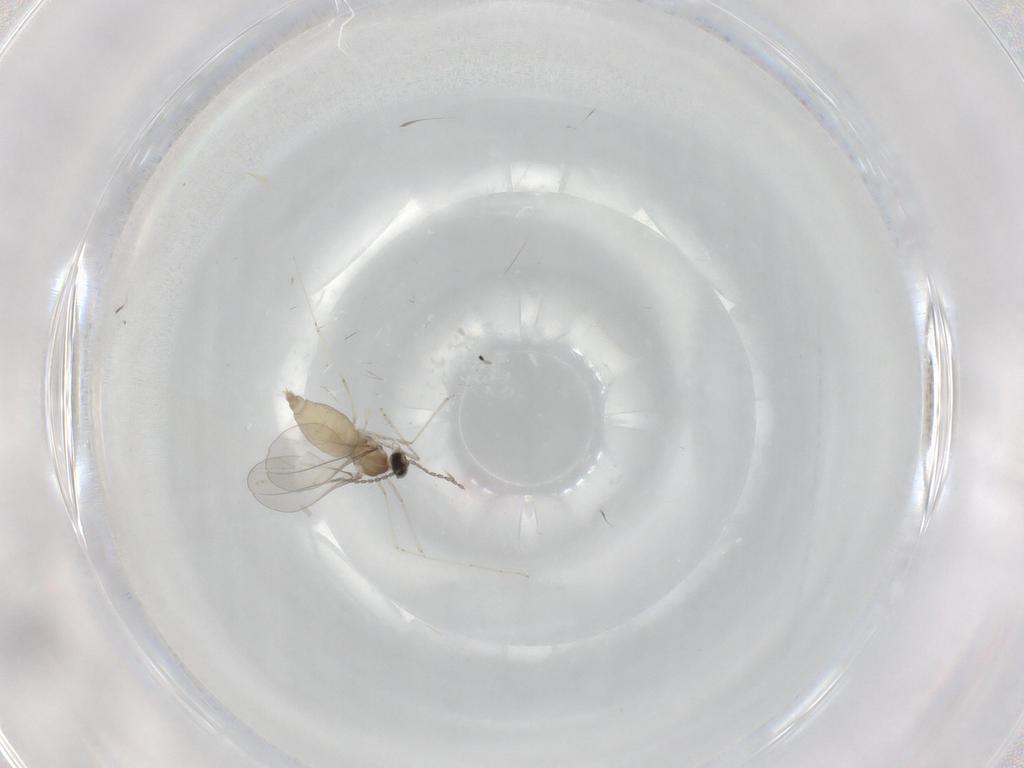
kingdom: Animalia
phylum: Arthropoda
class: Insecta
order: Diptera
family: Cecidomyiidae
